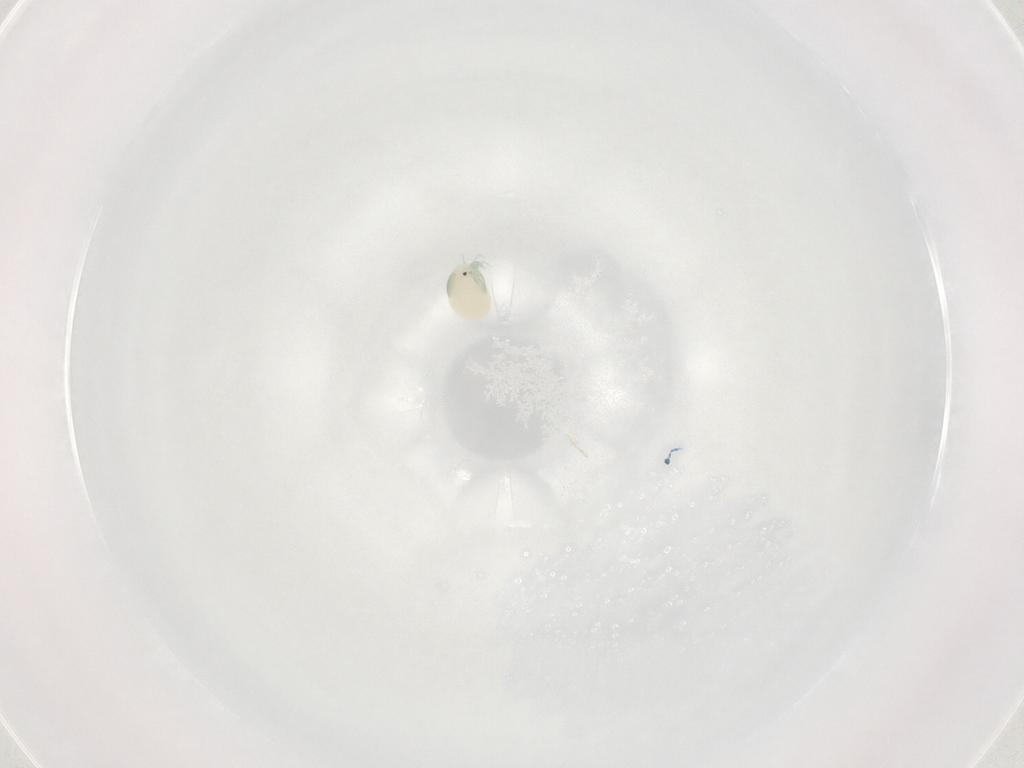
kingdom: Animalia
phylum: Arthropoda
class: Arachnida
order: Trombidiformes
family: Arrenuridae
